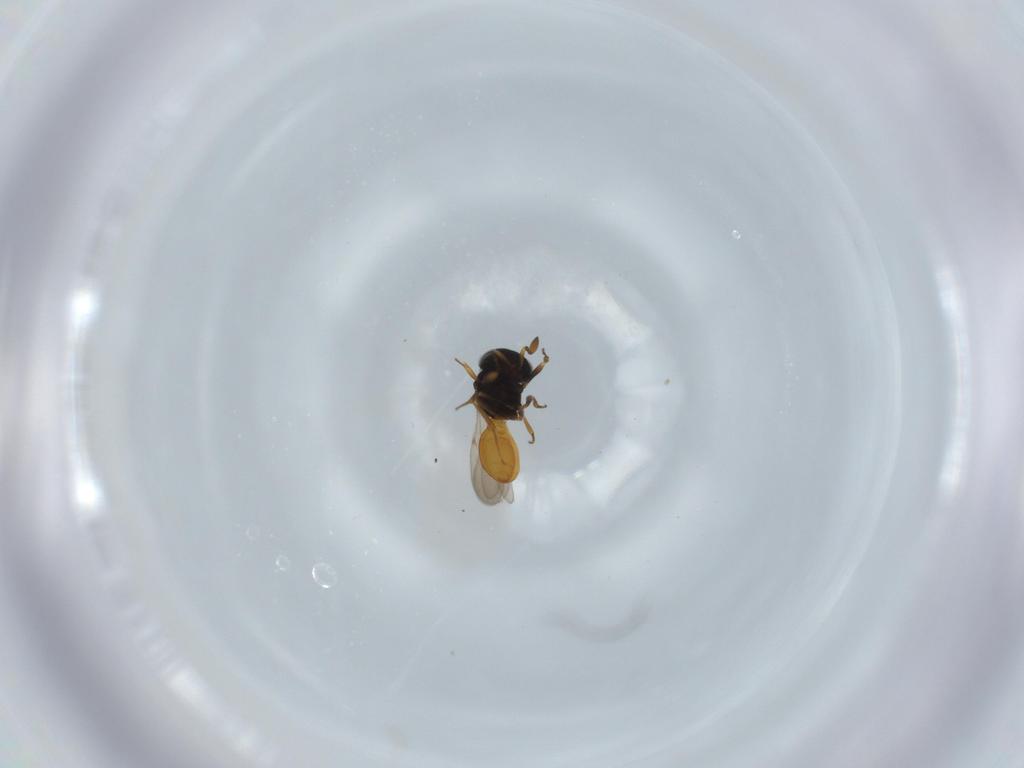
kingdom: Animalia
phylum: Arthropoda
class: Insecta
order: Hymenoptera
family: Scelionidae
